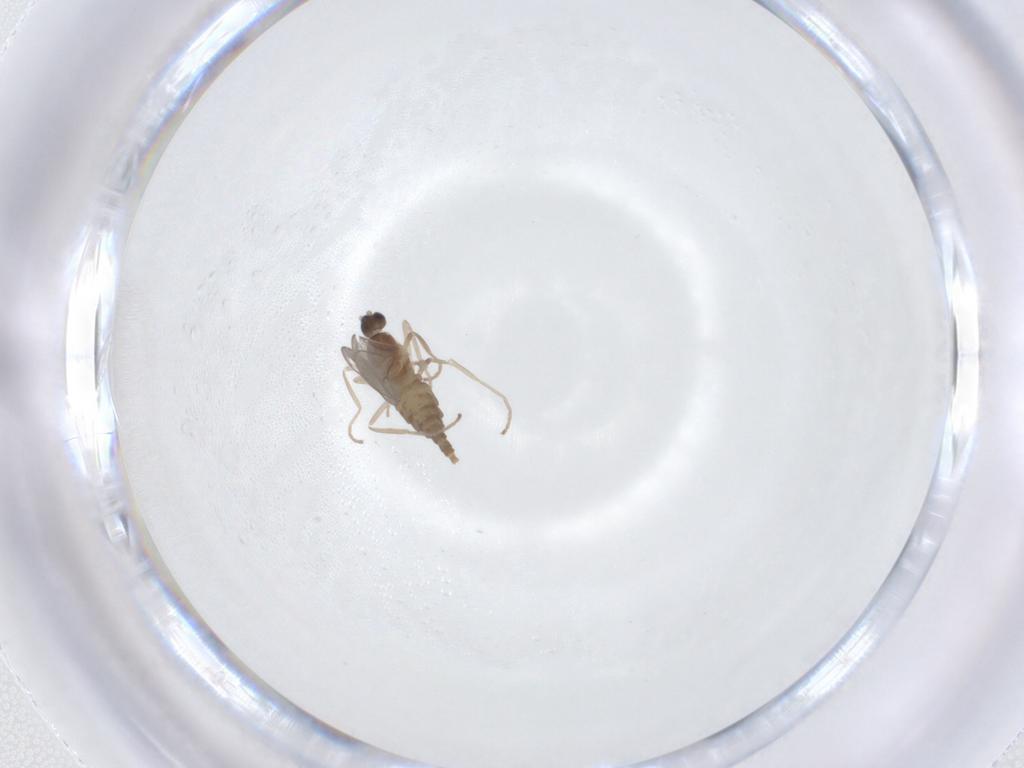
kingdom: Animalia
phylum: Arthropoda
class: Insecta
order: Diptera
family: Cecidomyiidae
